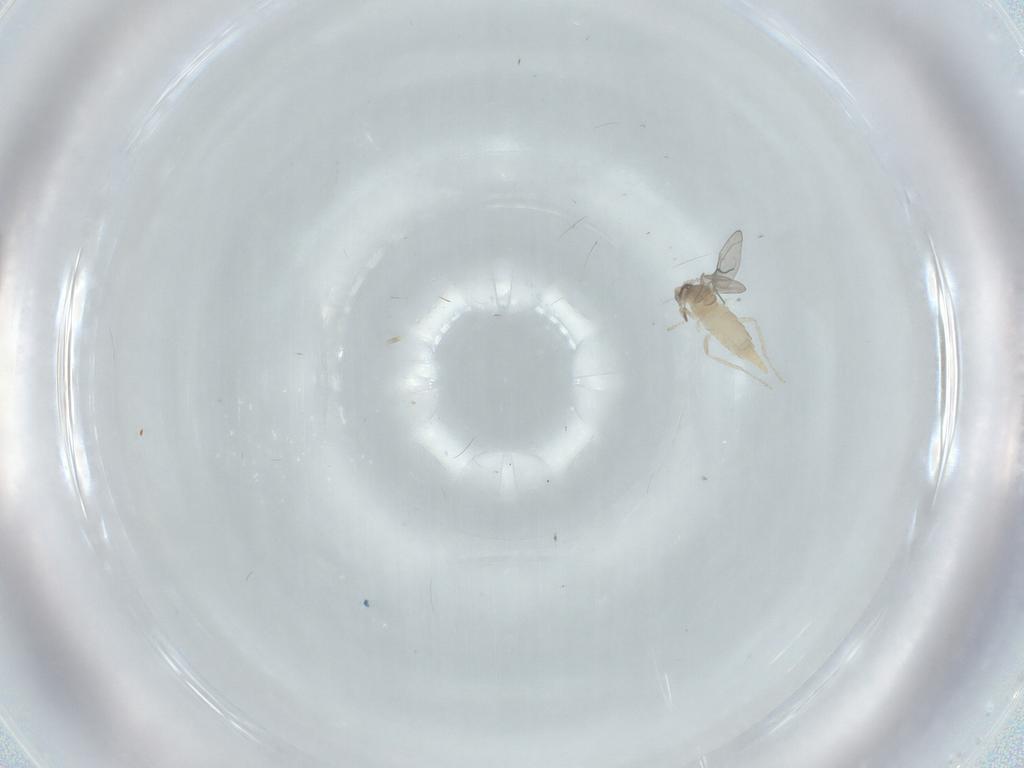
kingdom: Animalia
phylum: Arthropoda
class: Insecta
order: Diptera
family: Cecidomyiidae
